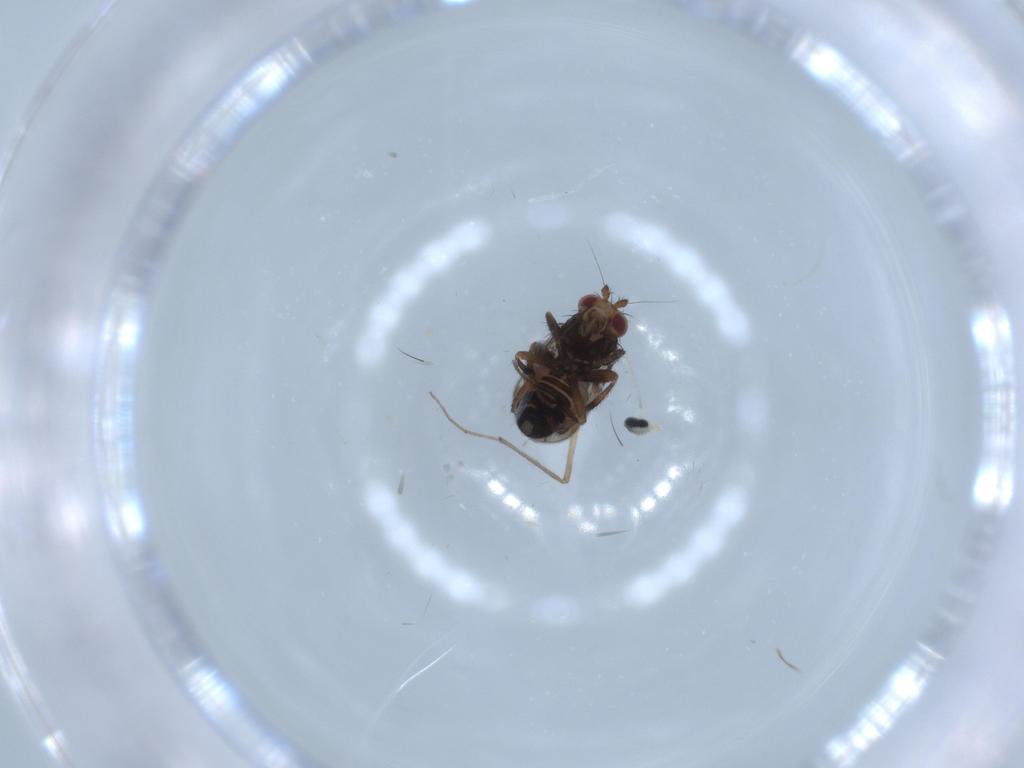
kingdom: Animalia
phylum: Arthropoda
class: Insecta
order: Diptera
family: Cecidomyiidae
